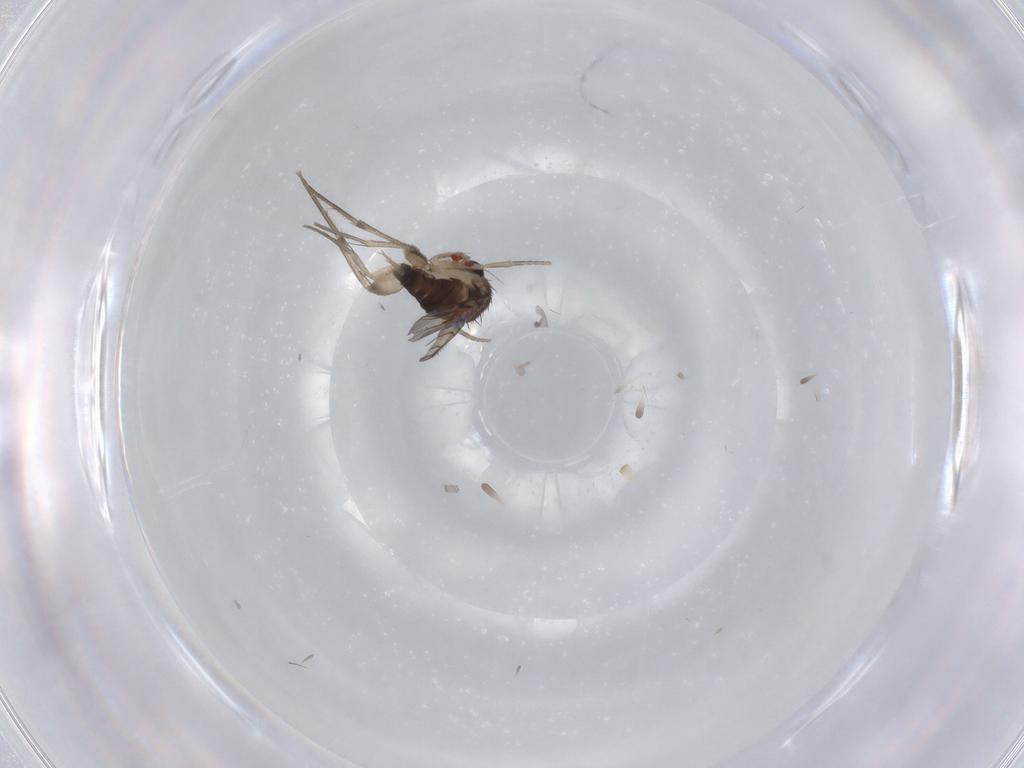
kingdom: Animalia
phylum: Arthropoda
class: Insecta
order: Diptera
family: Phoridae
